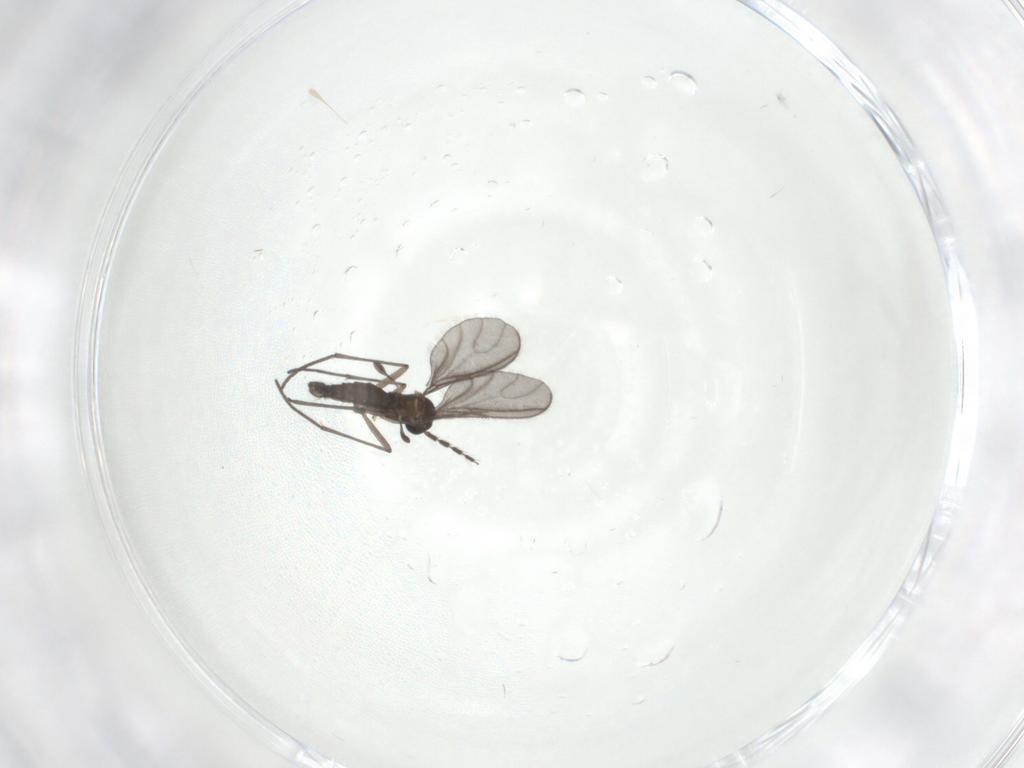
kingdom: Animalia
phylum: Arthropoda
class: Insecta
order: Diptera
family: Sciaridae
